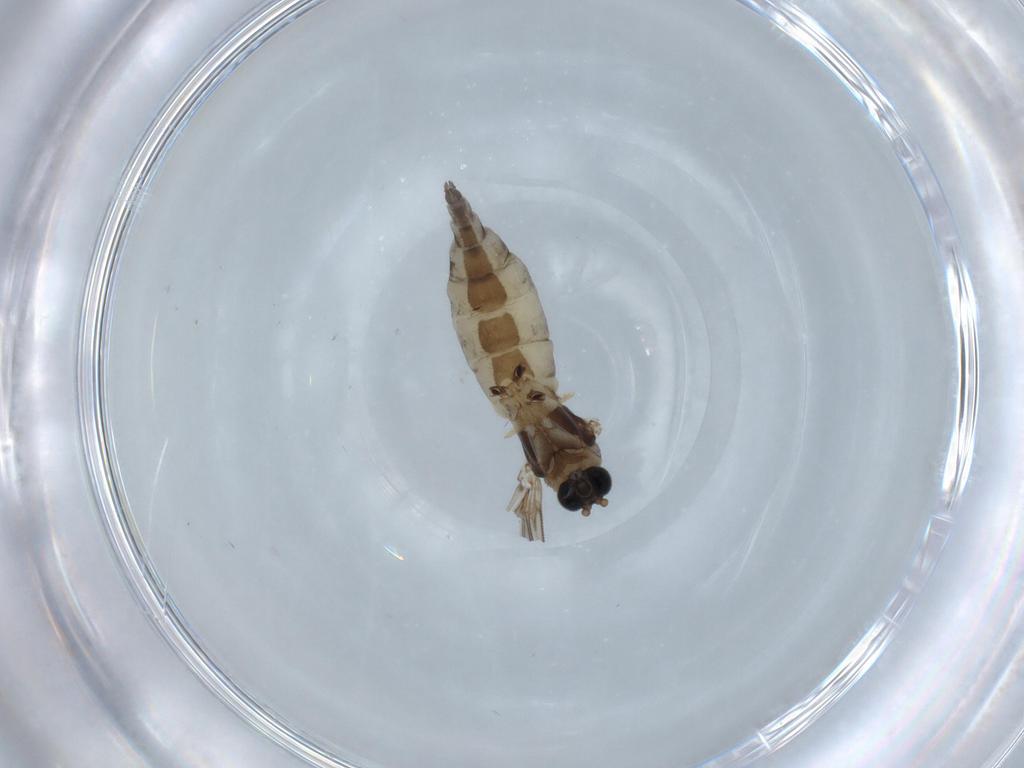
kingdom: Animalia
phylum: Arthropoda
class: Insecta
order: Diptera
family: Sciaridae
